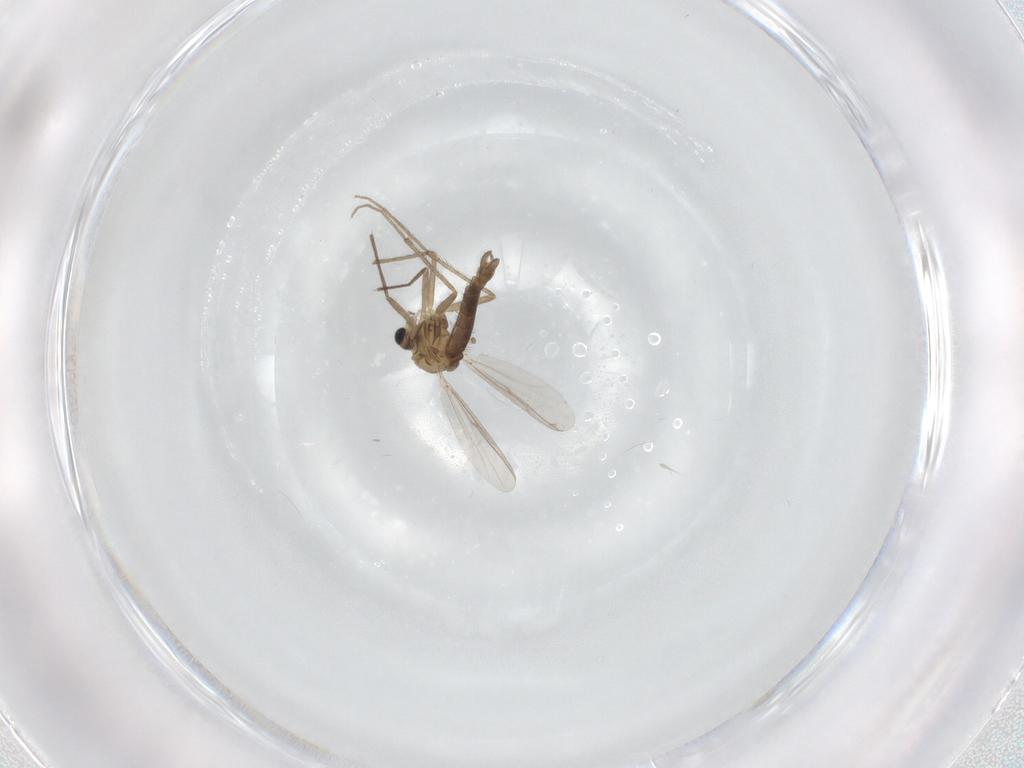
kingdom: Animalia
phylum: Arthropoda
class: Insecta
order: Diptera
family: Chironomidae
